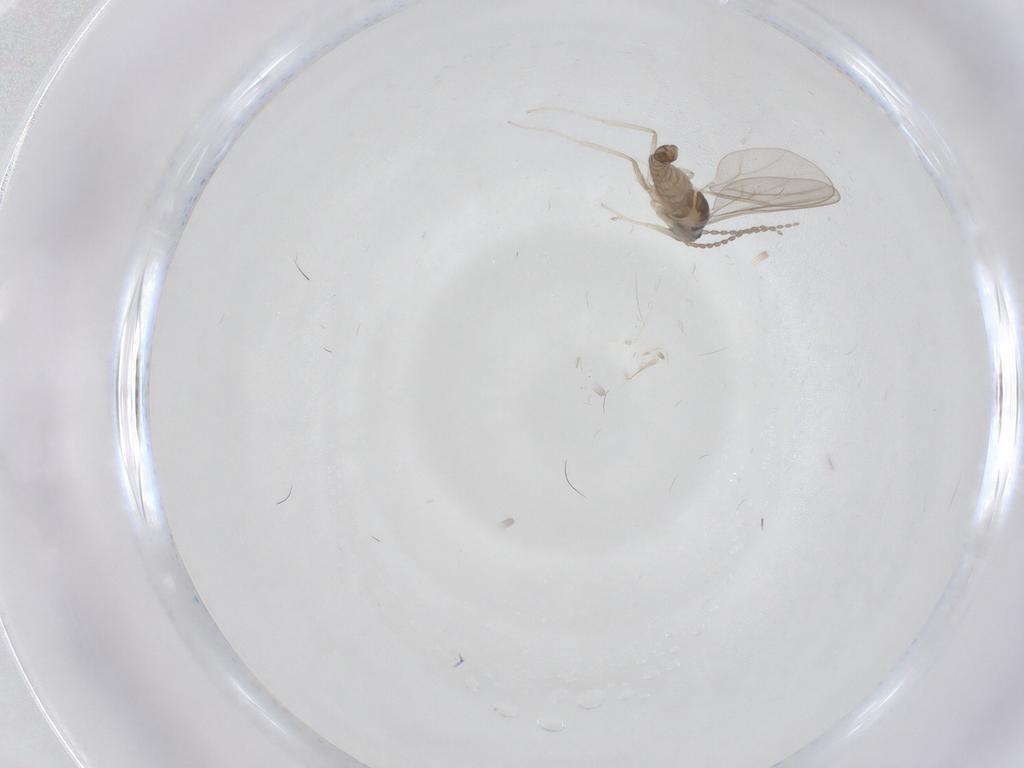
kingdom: Animalia
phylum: Arthropoda
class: Insecta
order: Diptera
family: Cecidomyiidae
